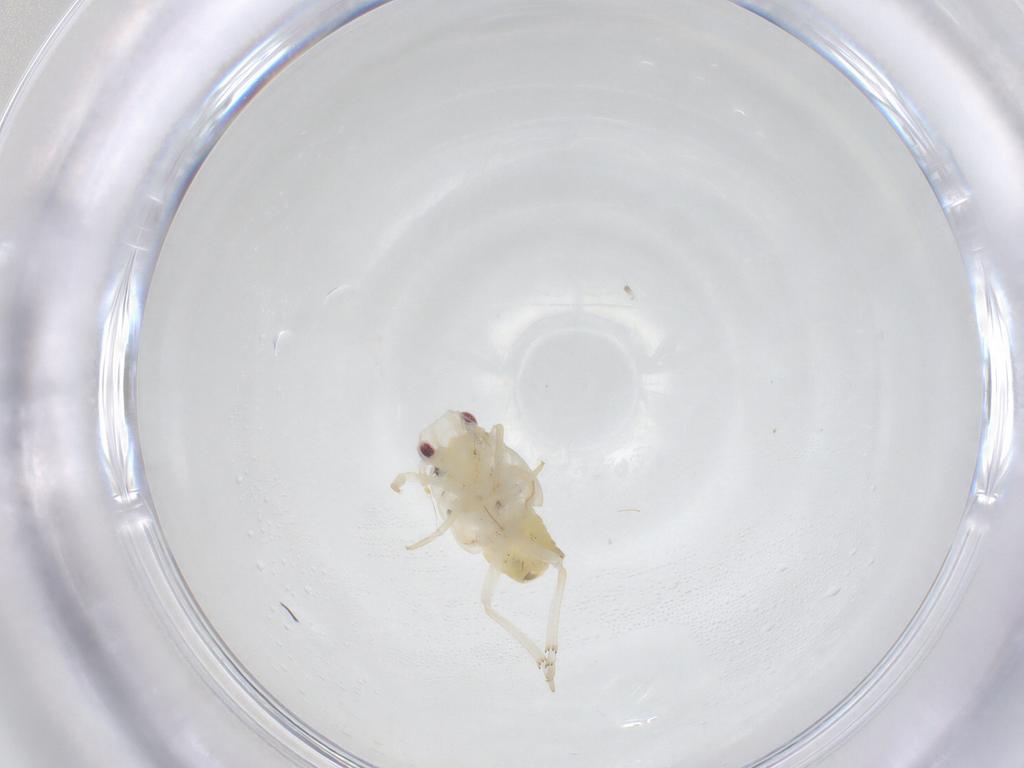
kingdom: Animalia
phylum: Arthropoda
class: Insecta
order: Hemiptera
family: Flatidae
